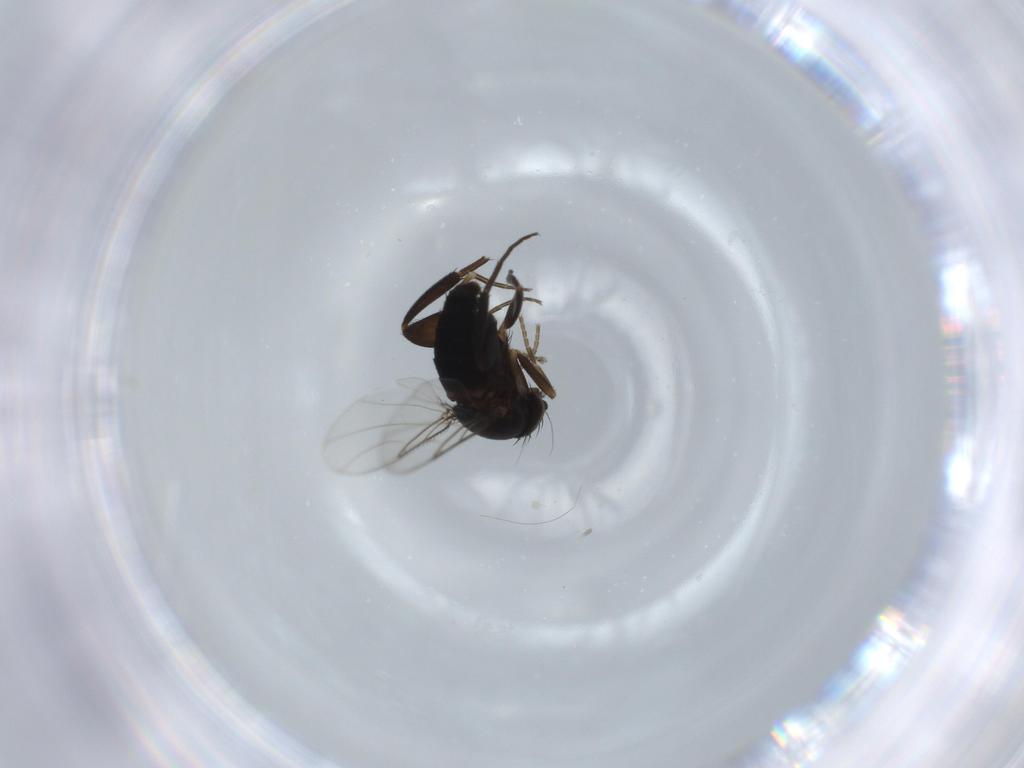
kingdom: Animalia
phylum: Arthropoda
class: Insecta
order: Diptera
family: Phoridae
